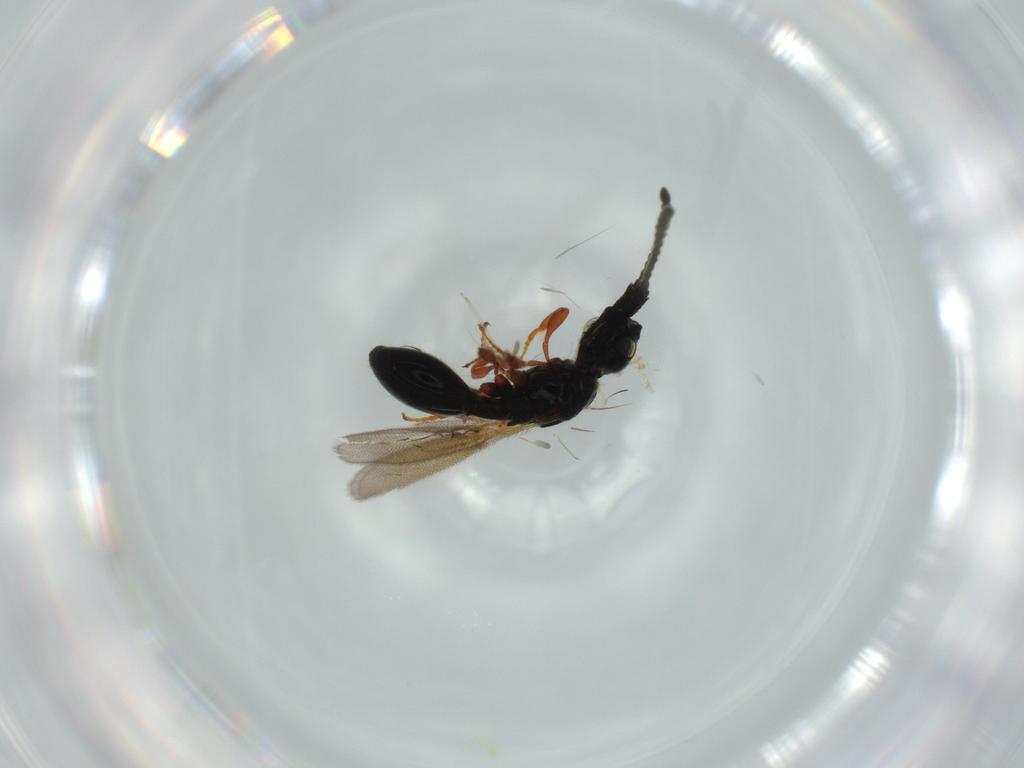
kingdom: Animalia
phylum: Arthropoda
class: Insecta
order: Hymenoptera
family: Diapriidae
